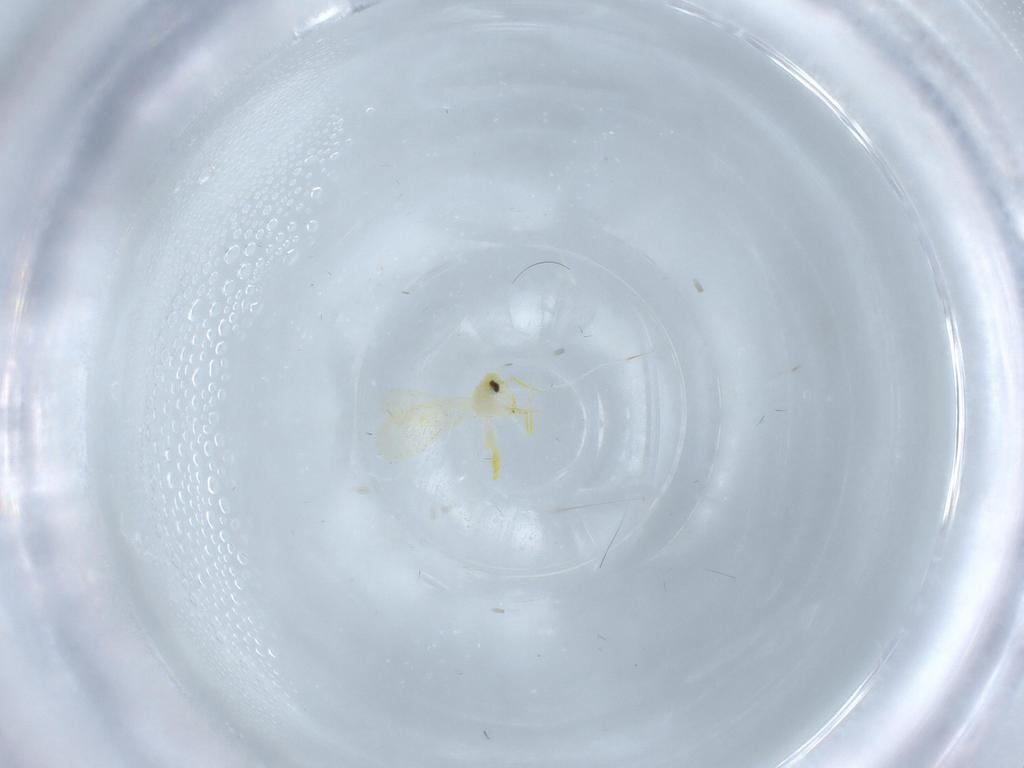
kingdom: Animalia
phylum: Arthropoda
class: Insecta
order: Hemiptera
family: Aleyrodidae
